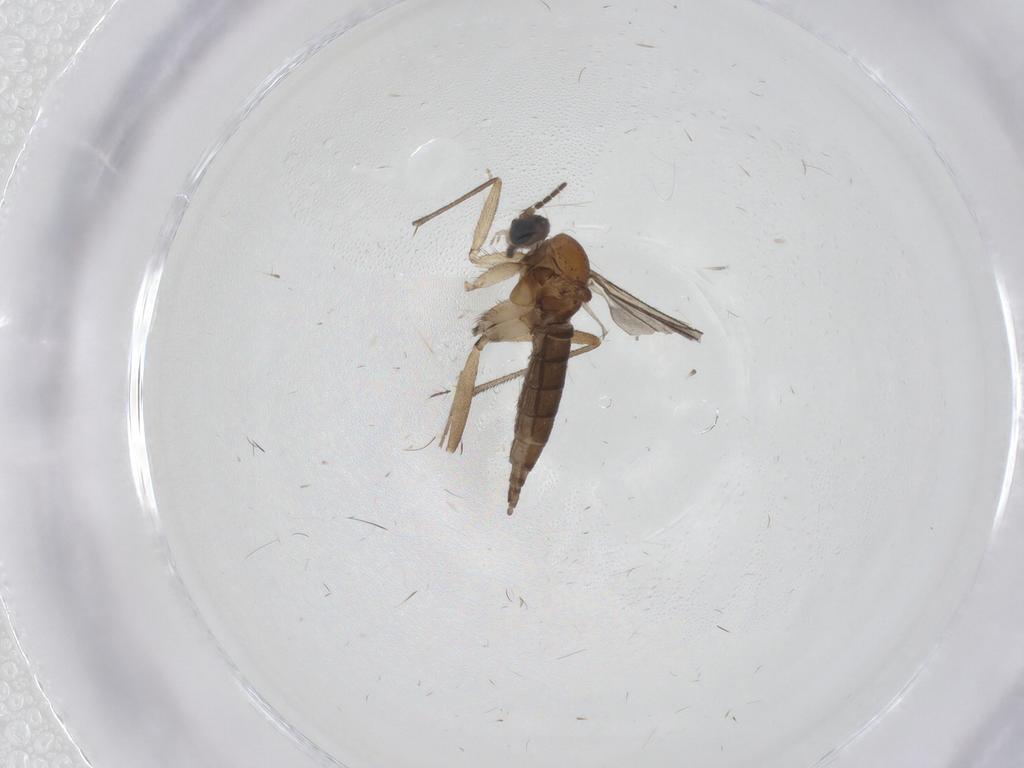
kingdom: Animalia
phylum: Arthropoda
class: Insecta
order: Diptera
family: Sciaridae
